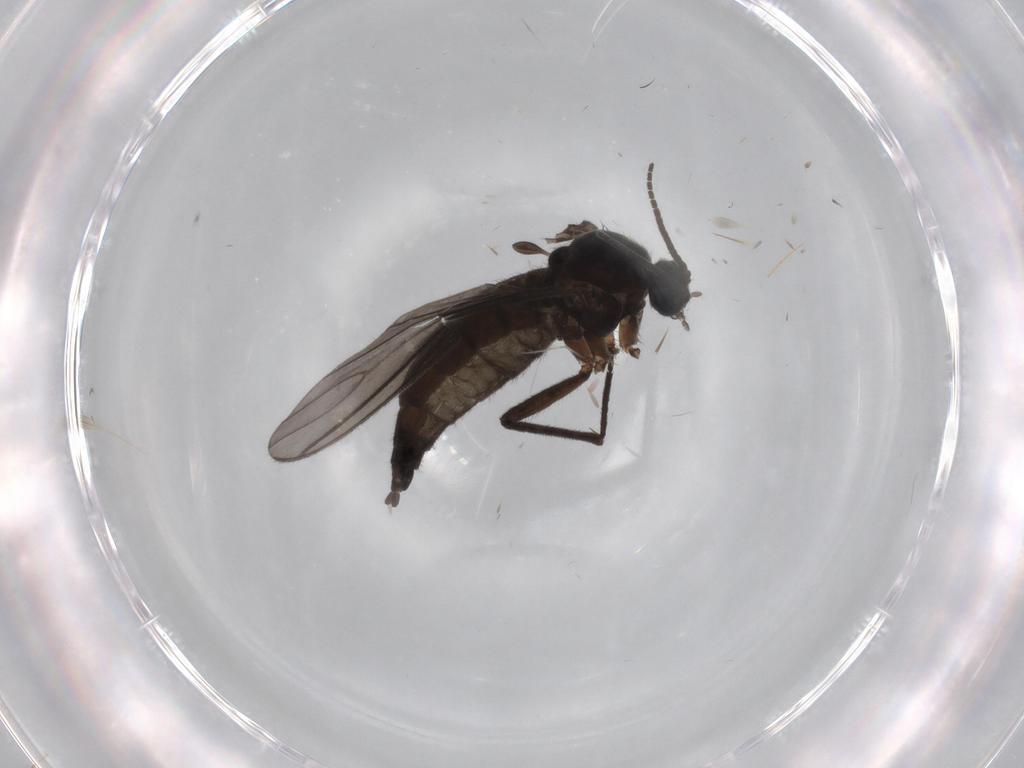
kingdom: Animalia
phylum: Arthropoda
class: Insecta
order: Diptera
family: Sciaridae
